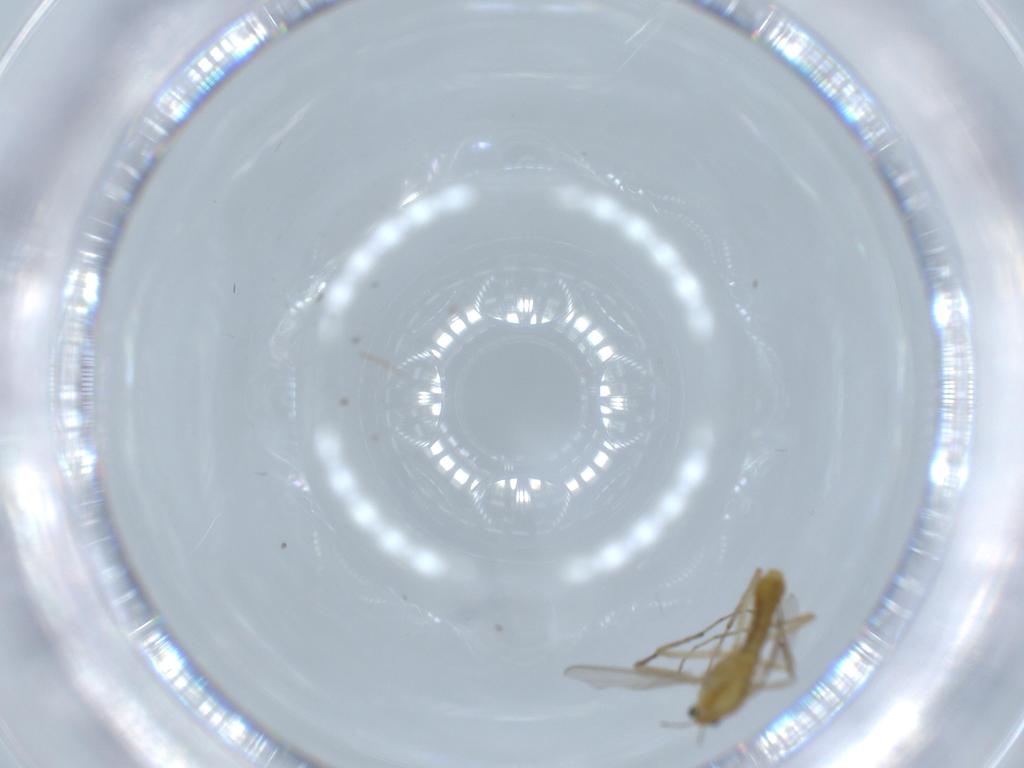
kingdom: Animalia
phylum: Arthropoda
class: Insecta
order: Diptera
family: Chironomidae
